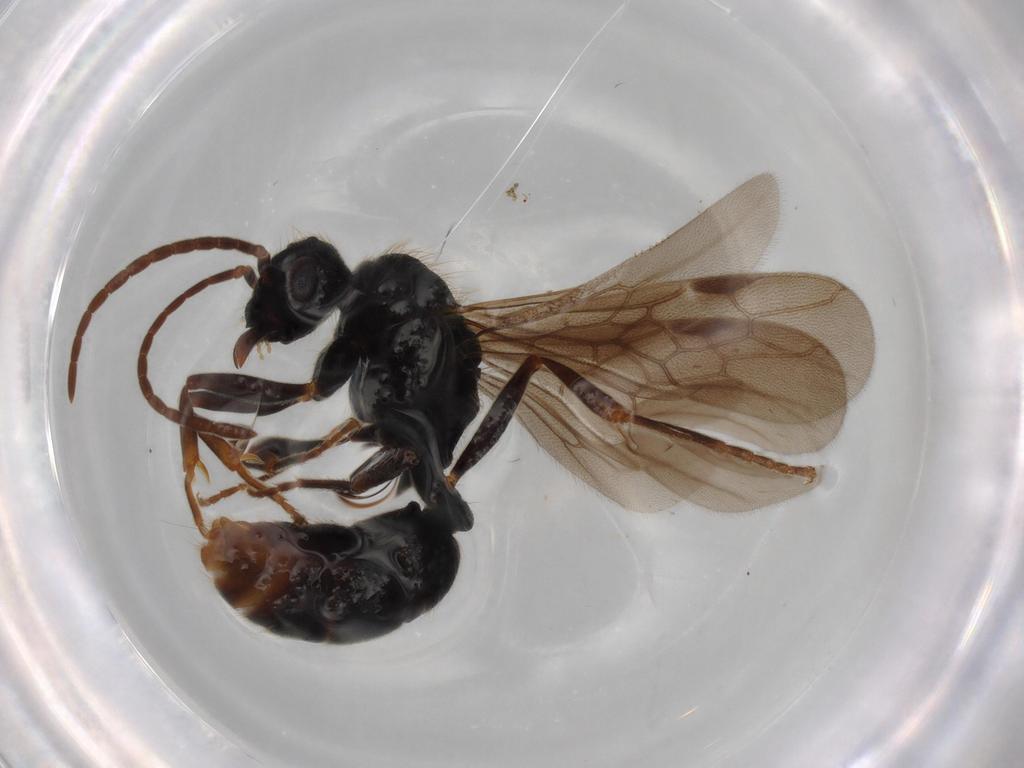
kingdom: Animalia
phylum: Arthropoda
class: Insecta
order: Hymenoptera
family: Formicidae
